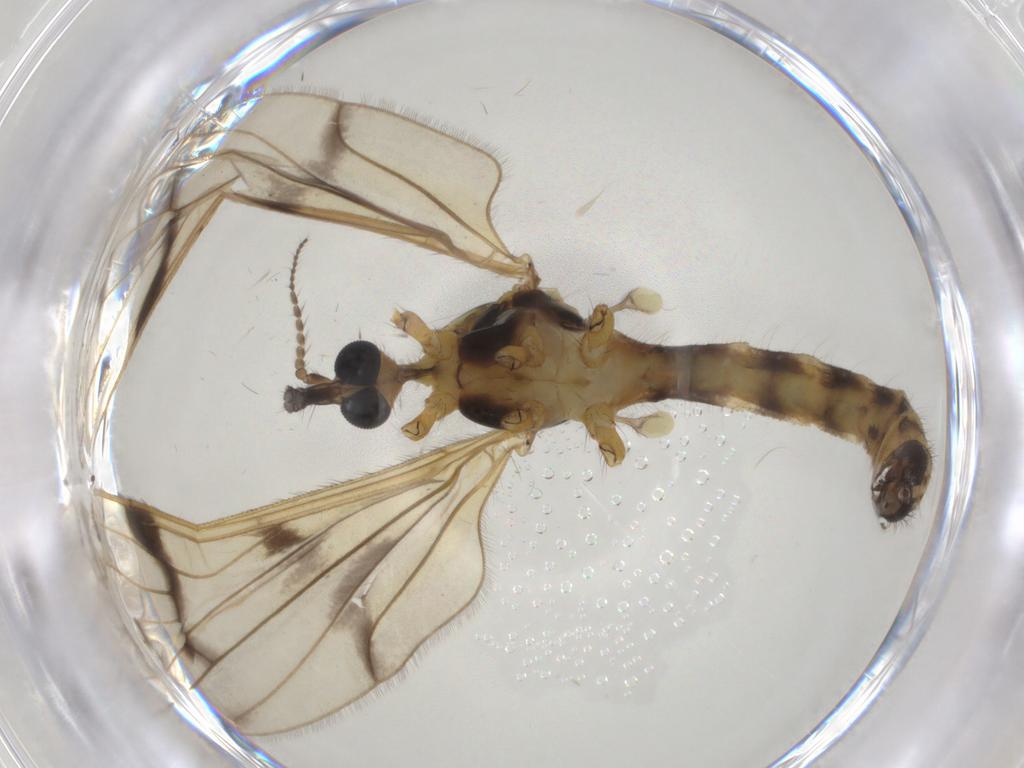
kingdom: Animalia
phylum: Arthropoda
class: Insecta
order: Diptera
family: Limoniidae
